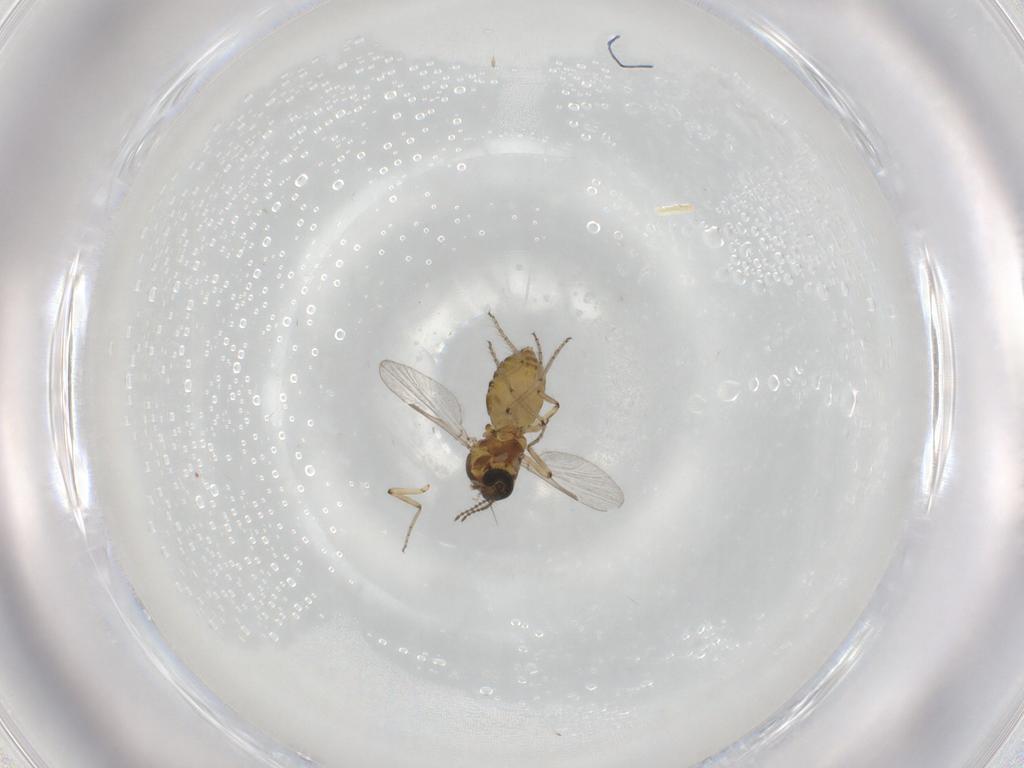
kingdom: Animalia
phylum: Arthropoda
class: Insecta
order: Diptera
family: Ceratopogonidae
